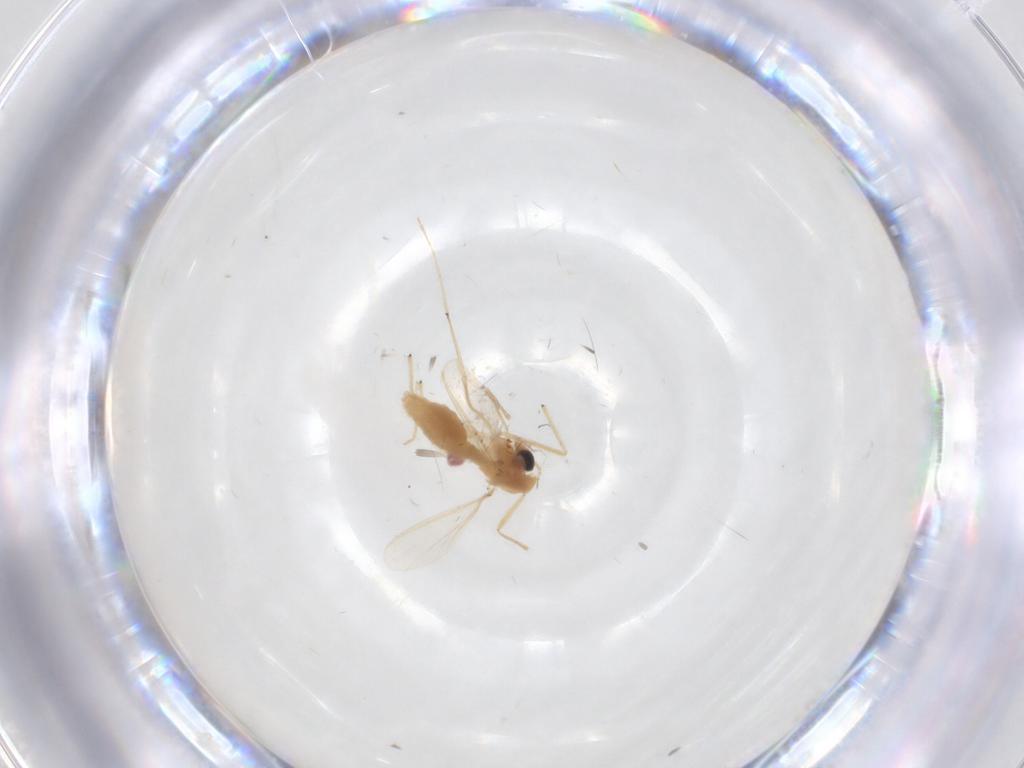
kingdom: Animalia
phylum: Arthropoda
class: Insecta
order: Diptera
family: Chironomidae
